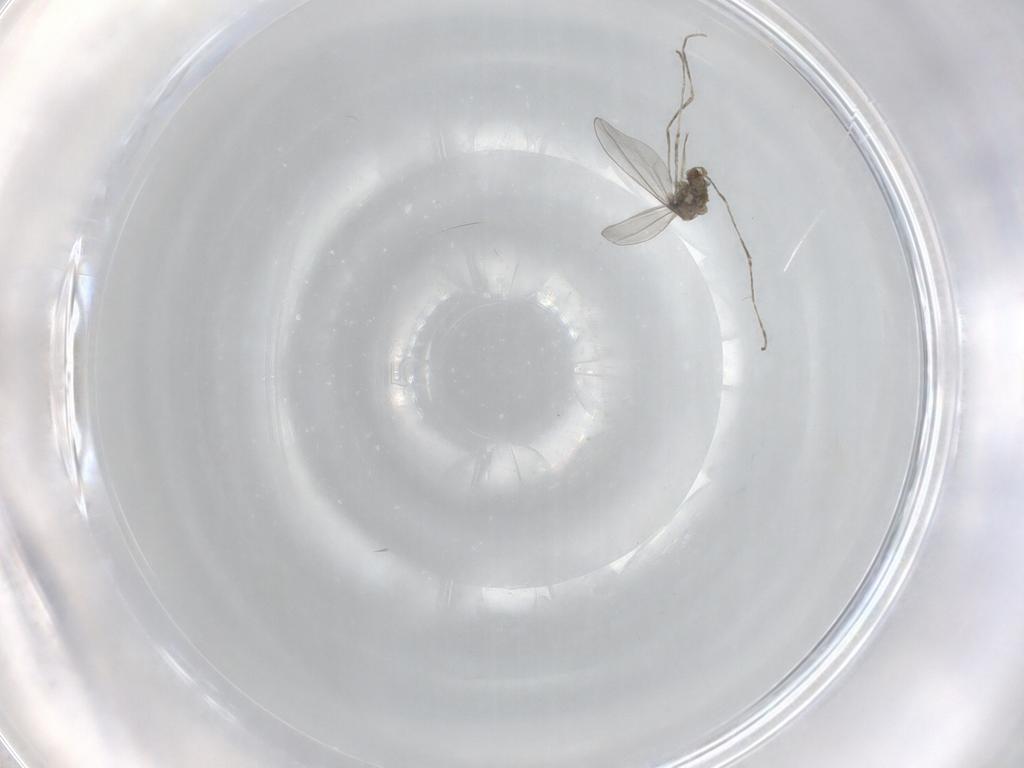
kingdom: Animalia
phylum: Arthropoda
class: Insecta
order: Diptera
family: Cecidomyiidae
